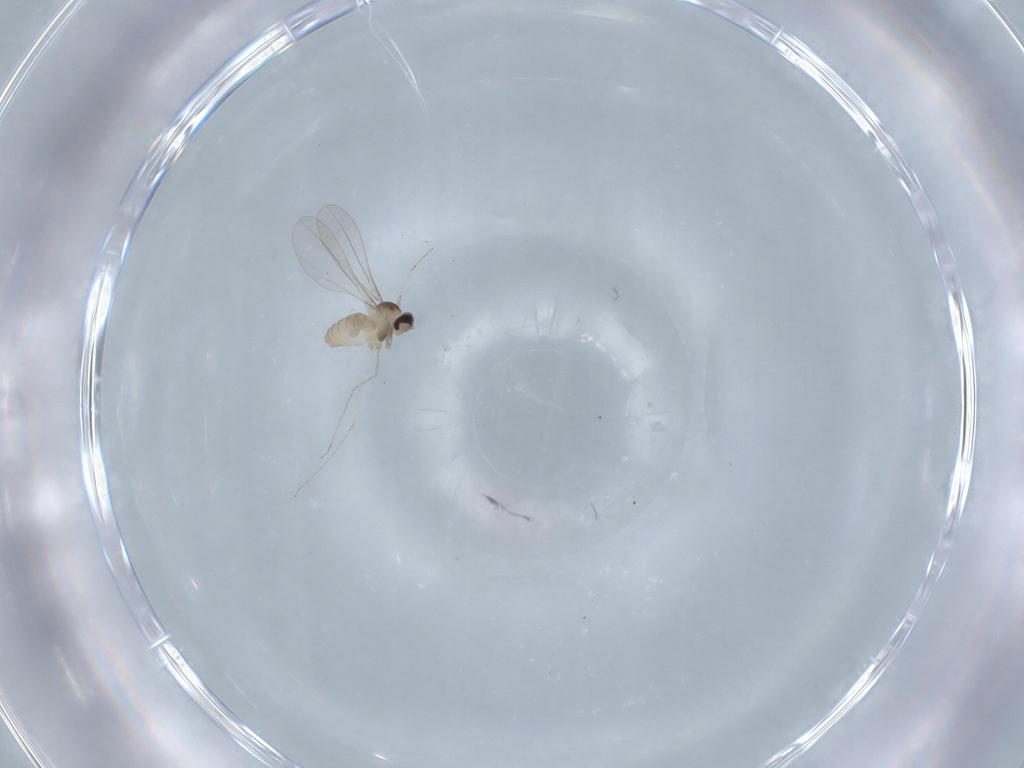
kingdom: Animalia
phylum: Arthropoda
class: Insecta
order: Diptera
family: Cecidomyiidae
